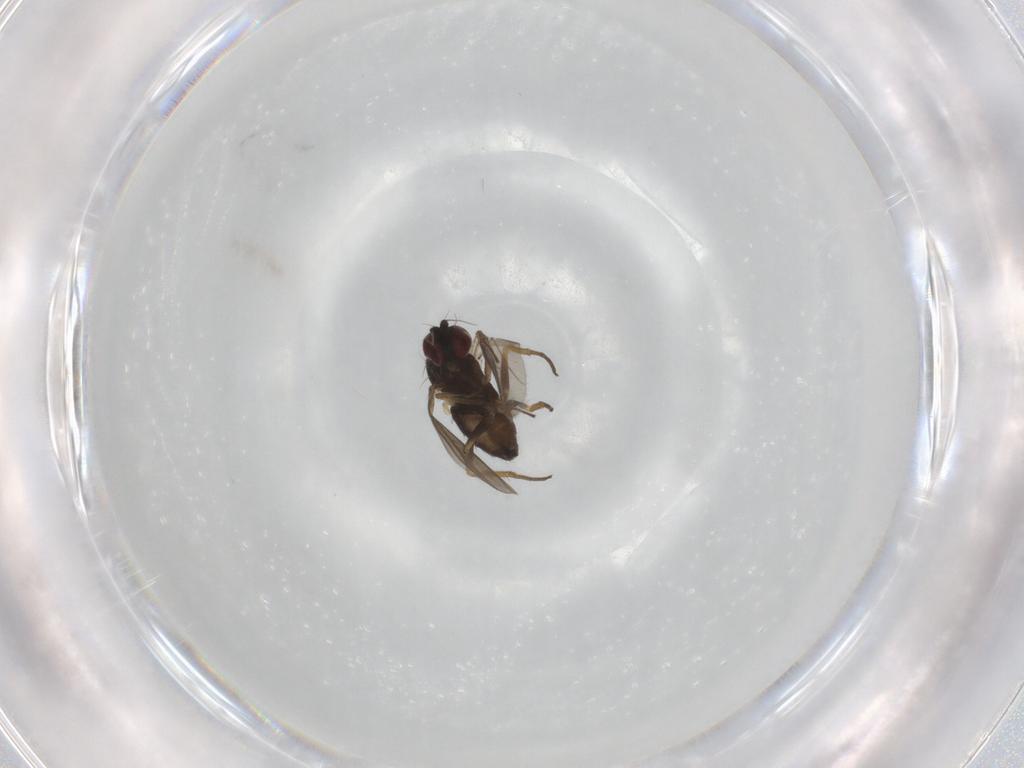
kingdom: Animalia
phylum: Arthropoda
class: Insecta
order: Diptera
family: Dolichopodidae
